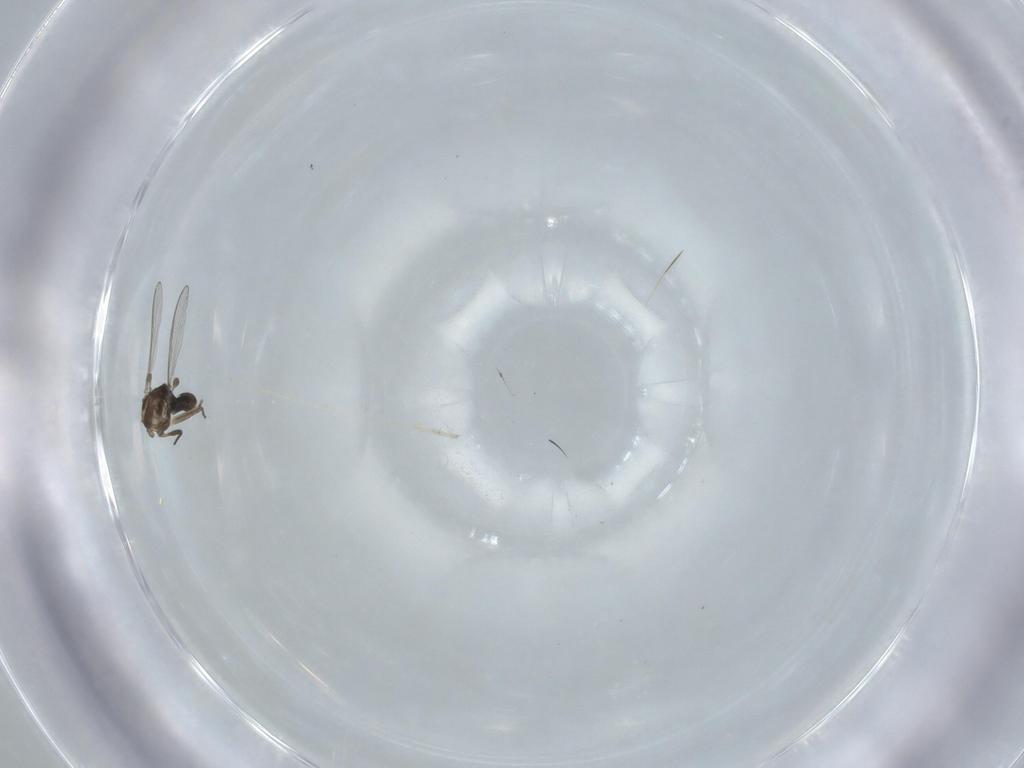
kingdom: Animalia
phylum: Arthropoda
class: Insecta
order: Diptera
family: Chironomidae
